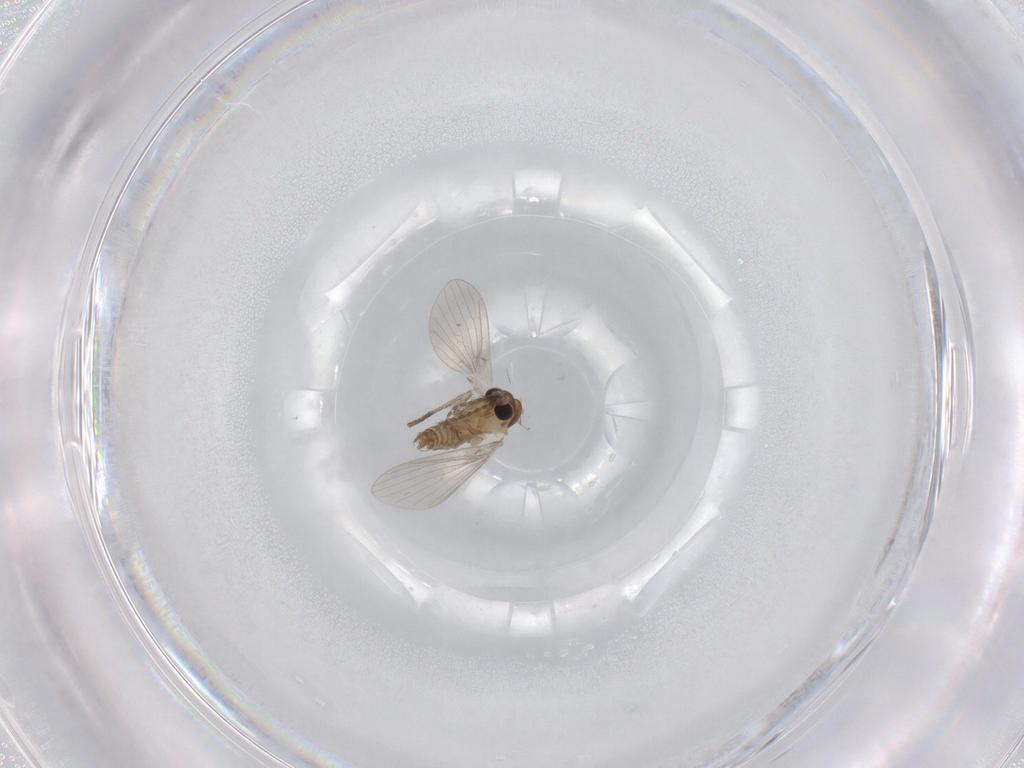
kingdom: Animalia
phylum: Arthropoda
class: Insecta
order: Diptera
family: Psychodidae
